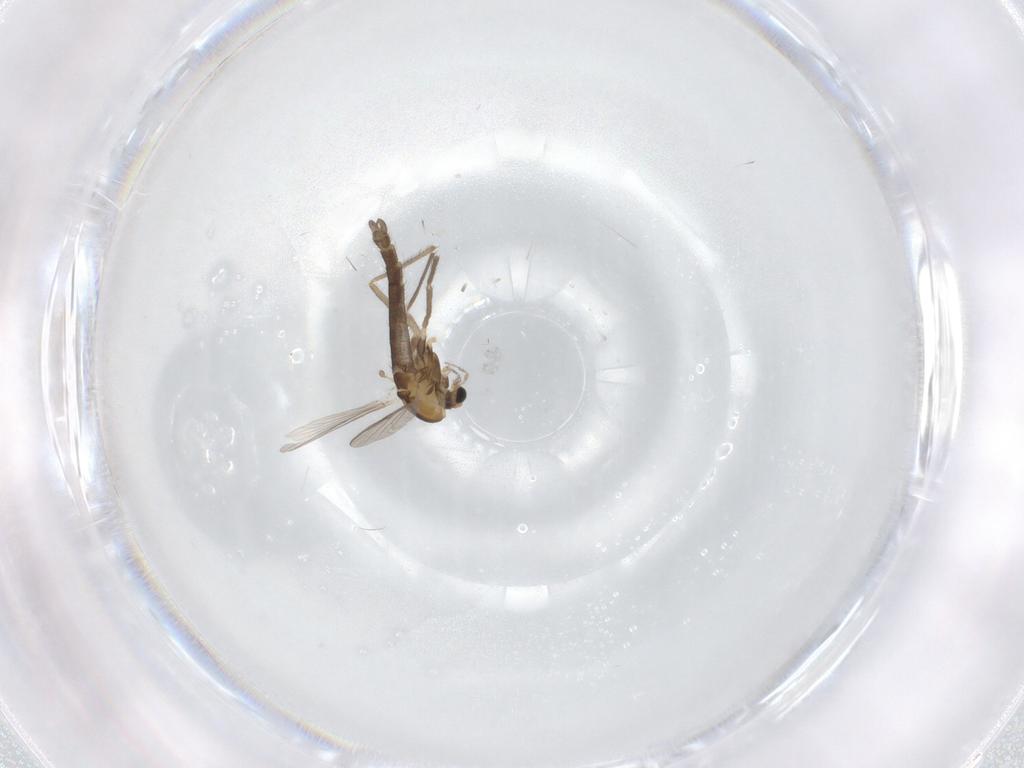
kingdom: Animalia
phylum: Arthropoda
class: Insecta
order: Diptera
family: Chironomidae
